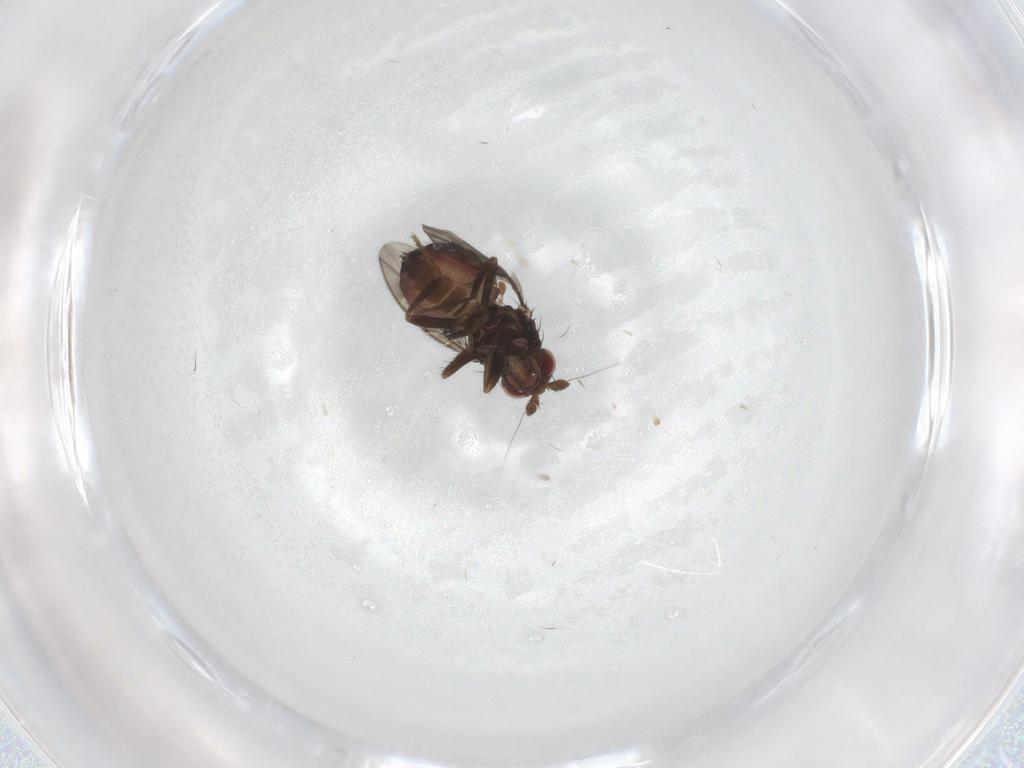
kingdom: Animalia
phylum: Arthropoda
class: Insecta
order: Diptera
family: Sphaeroceridae
